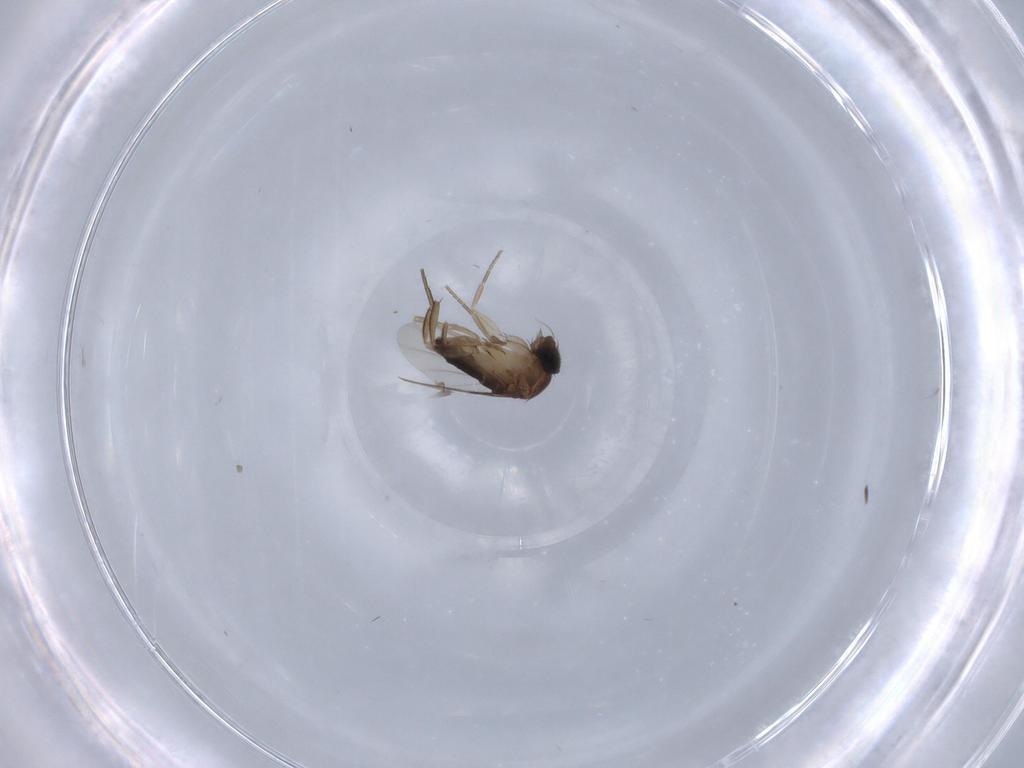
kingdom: Animalia
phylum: Arthropoda
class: Insecta
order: Diptera
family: Phoridae
